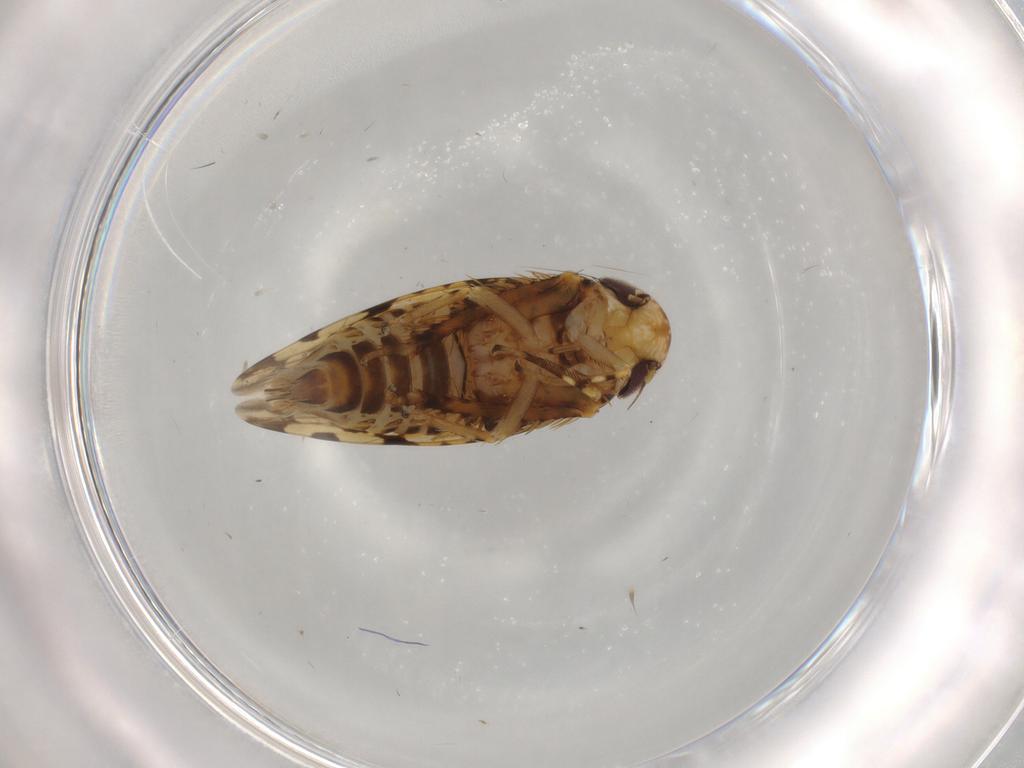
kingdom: Animalia
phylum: Arthropoda
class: Insecta
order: Hemiptera
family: Cicadellidae
